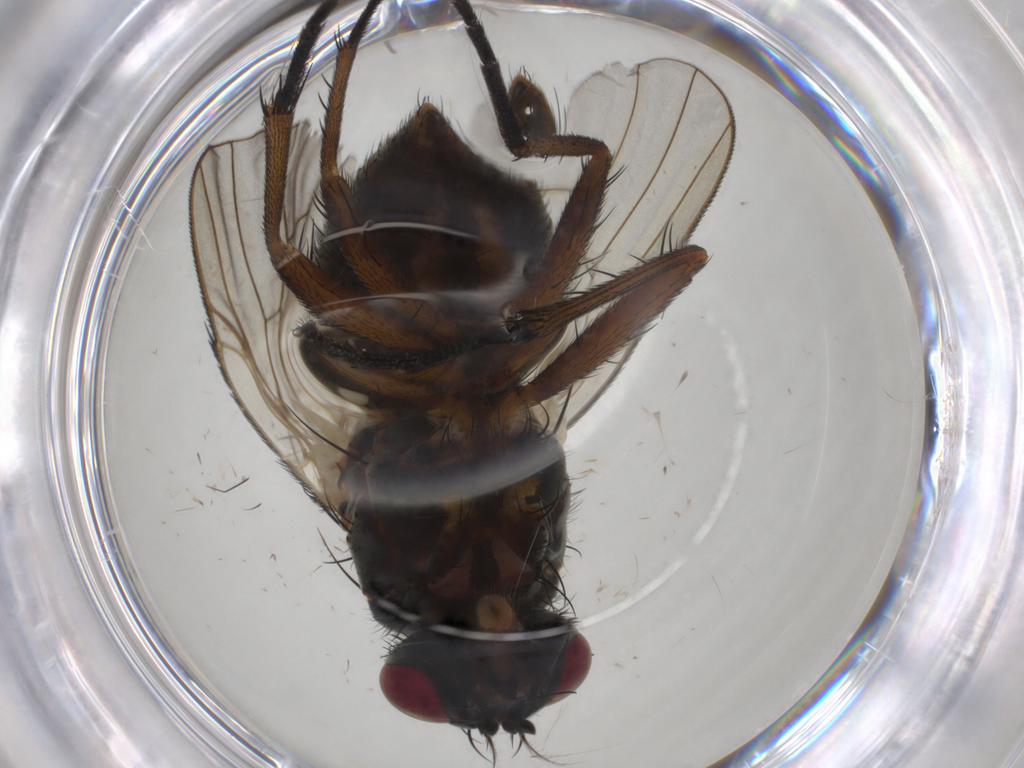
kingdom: Animalia
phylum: Arthropoda
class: Insecta
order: Diptera
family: Muscidae
